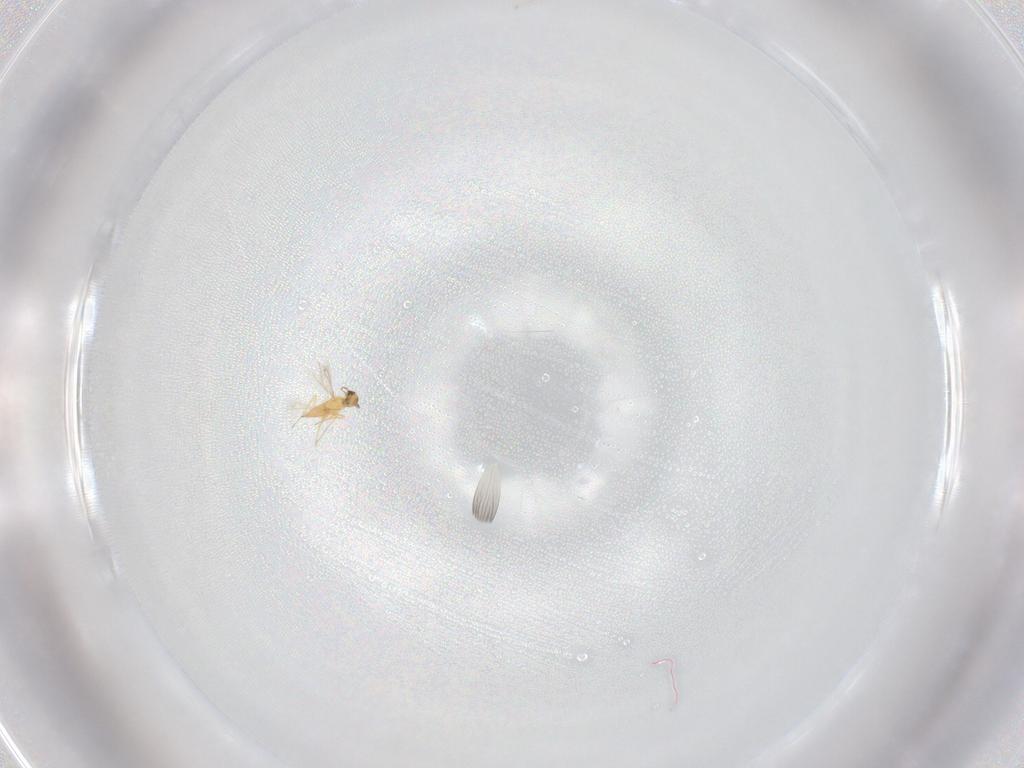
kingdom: Animalia
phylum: Arthropoda
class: Insecta
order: Hymenoptera
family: Mymaridae
